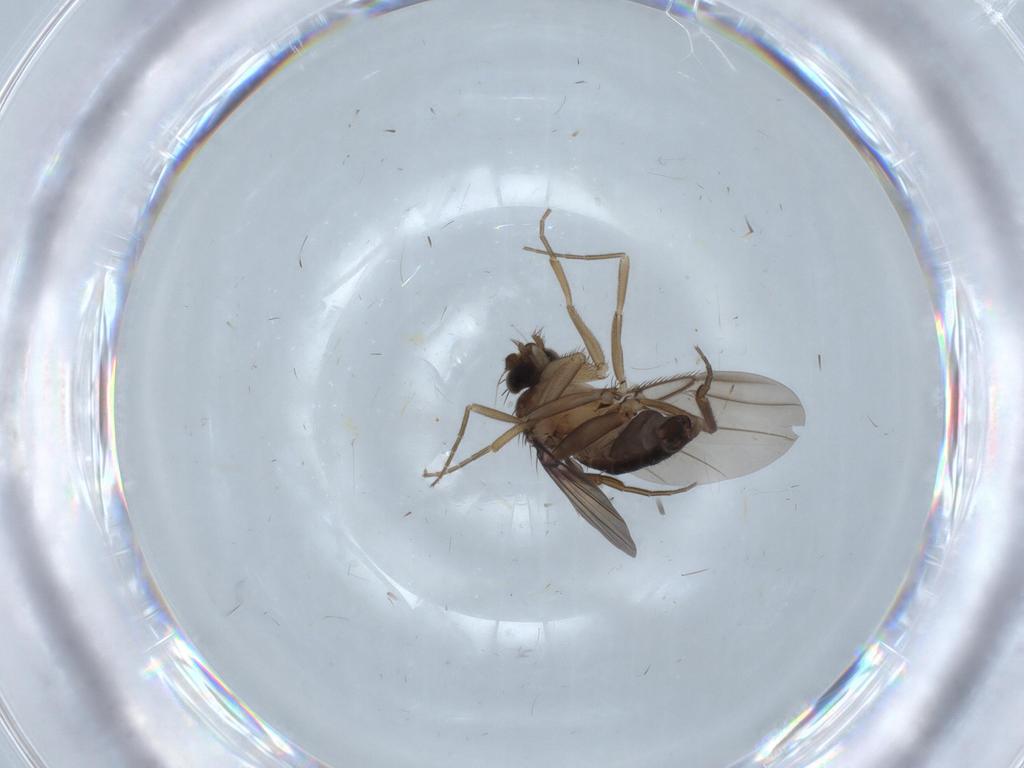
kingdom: Animalia
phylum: Arthropoda
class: Insecta
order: Diptera
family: Phoridae
